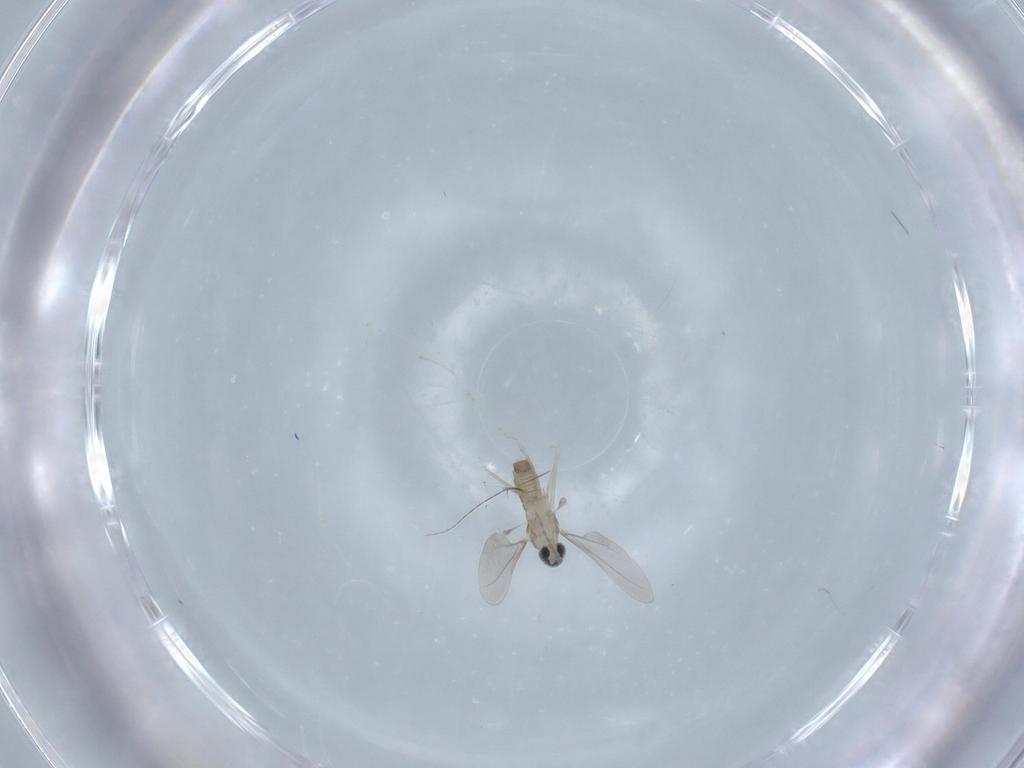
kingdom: Animalia
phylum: Arthropoda
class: Insecta
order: Diptera
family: Cecidomyiidae
